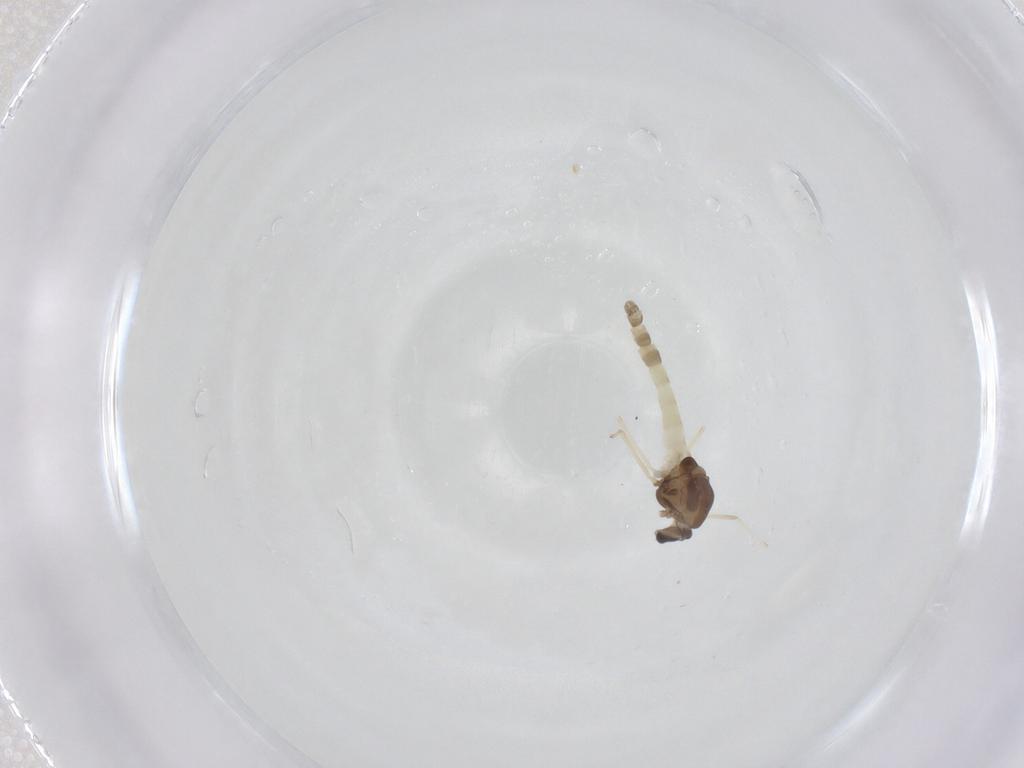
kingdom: Animalia
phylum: Arthropoda
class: Insecta
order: Diptera
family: Chironomidae
